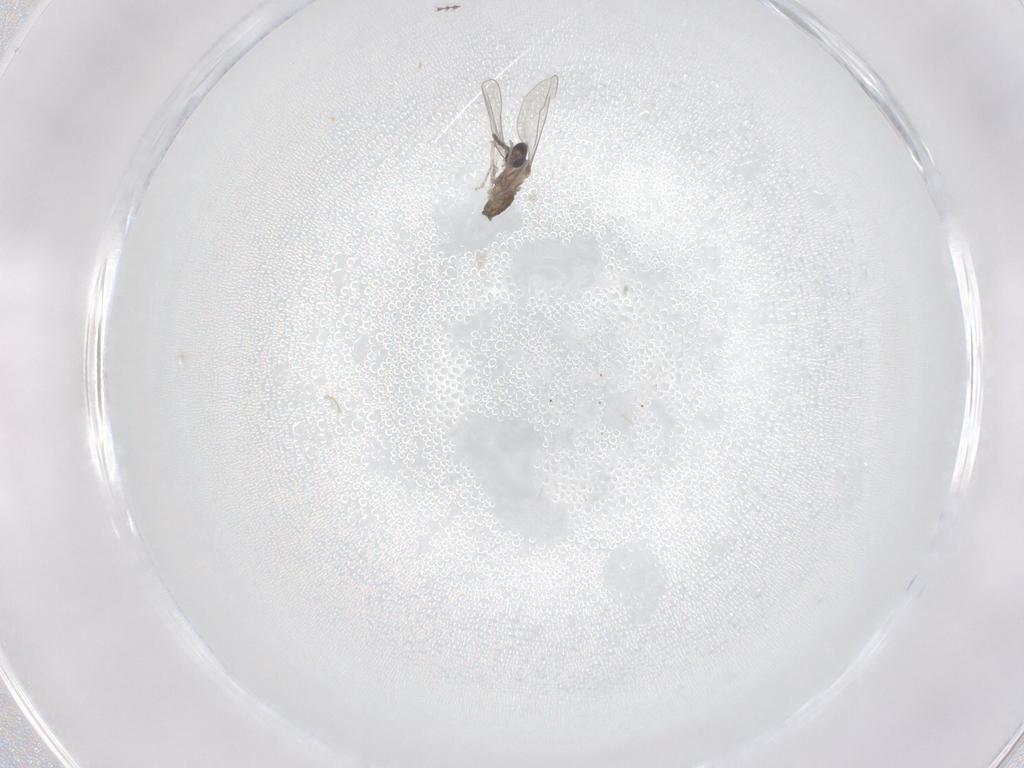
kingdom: Animalia
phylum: Arthropoda
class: Insecta
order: Diptera
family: Cecidomyiidae
